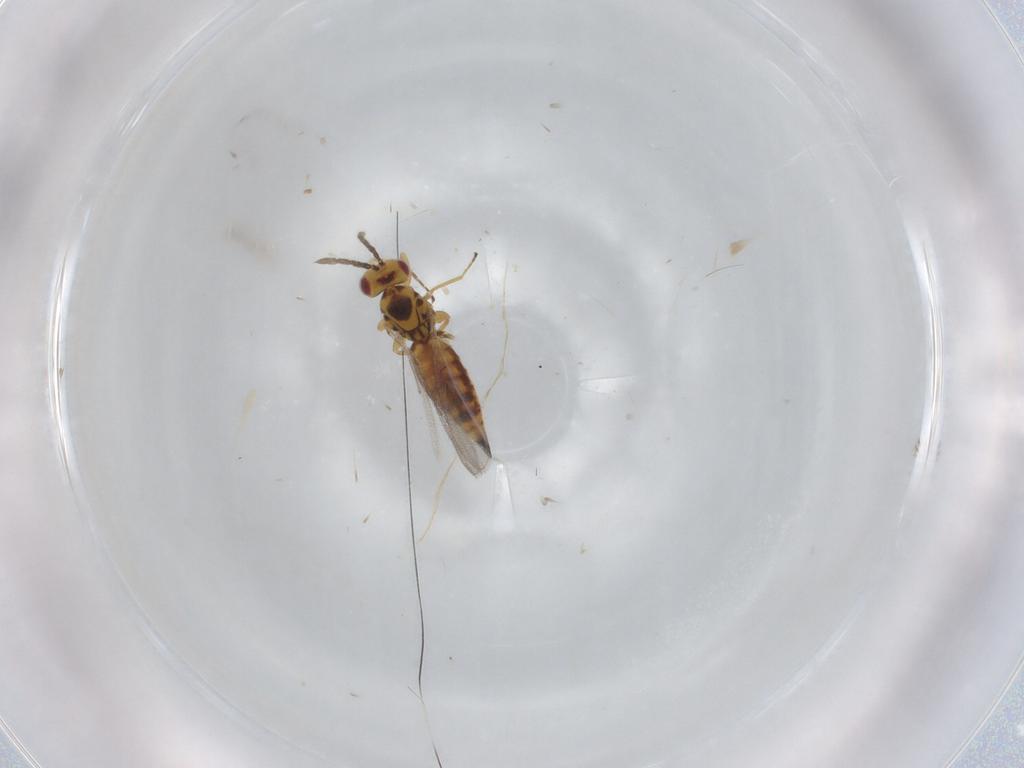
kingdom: Animalia
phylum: Arthropoda
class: Insecta
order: Hymenoptera
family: Eulophidae
